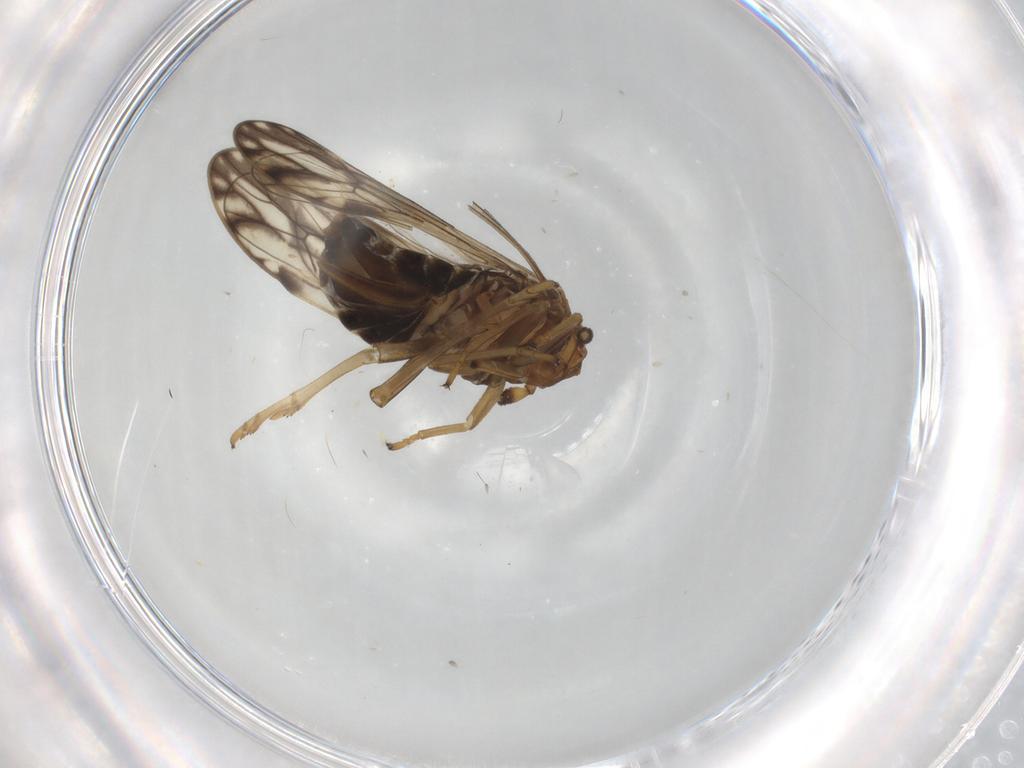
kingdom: Animalia
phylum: Arthropoda
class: Insecta
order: Hemiptera
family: Delphacidae
